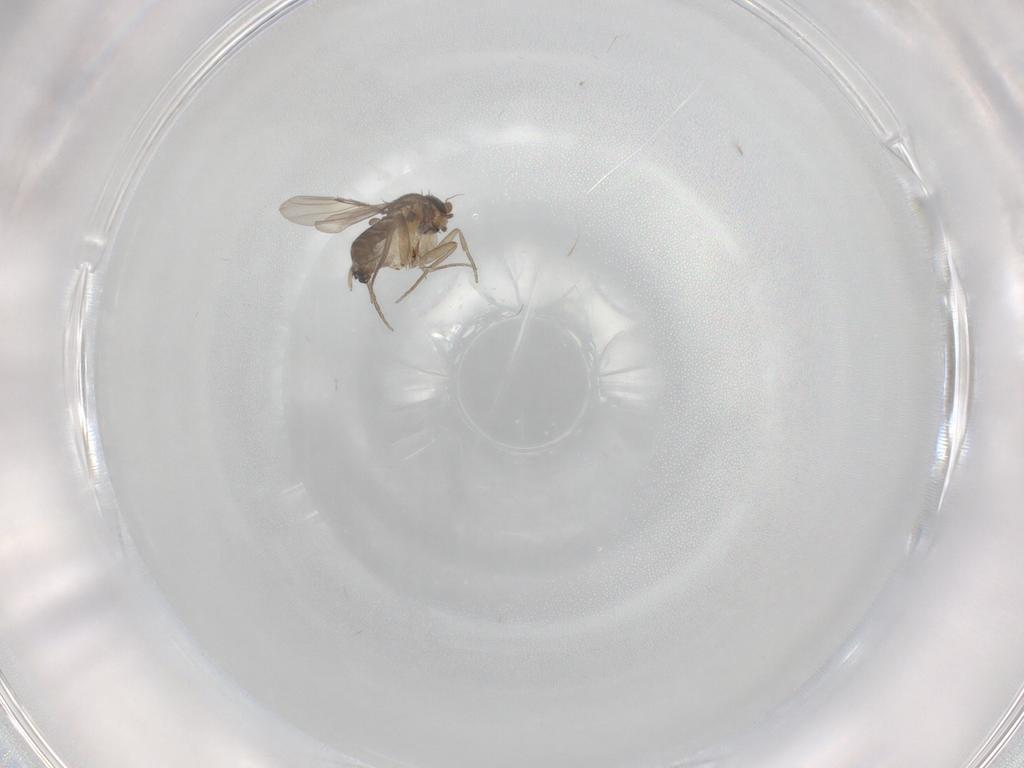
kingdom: Animalia
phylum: Arthropoda
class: Insecta
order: Diptera
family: Phoridae
